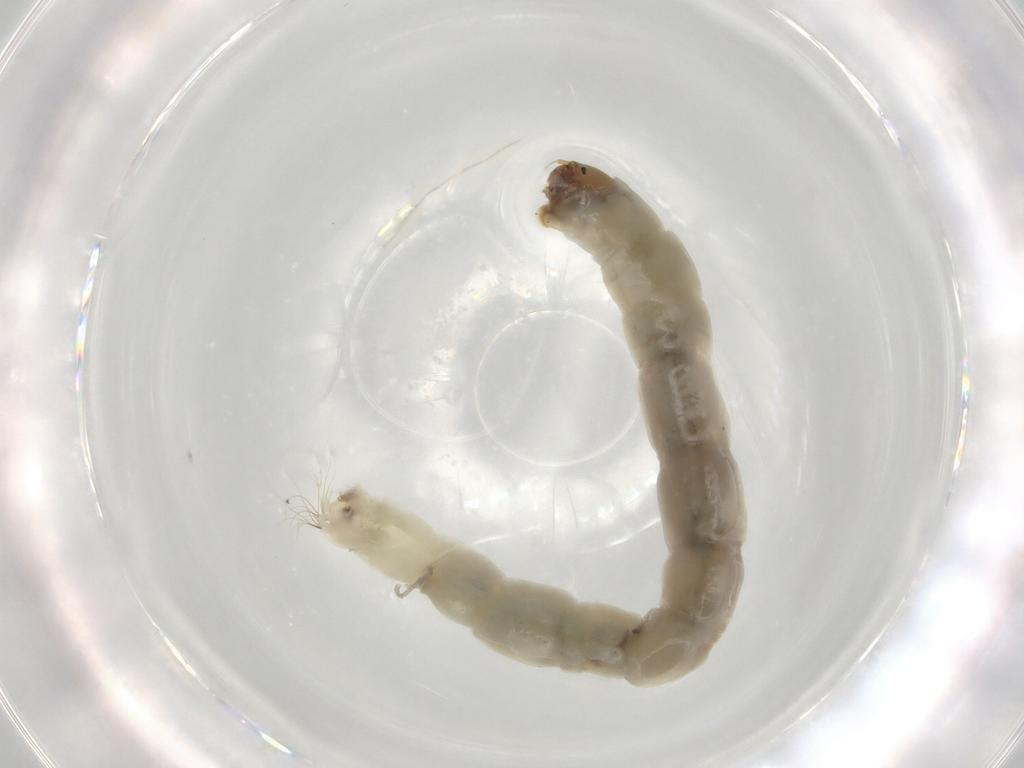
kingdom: Animalia
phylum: Arthropoda
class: Insecta
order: Diptera
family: Chironomidae
